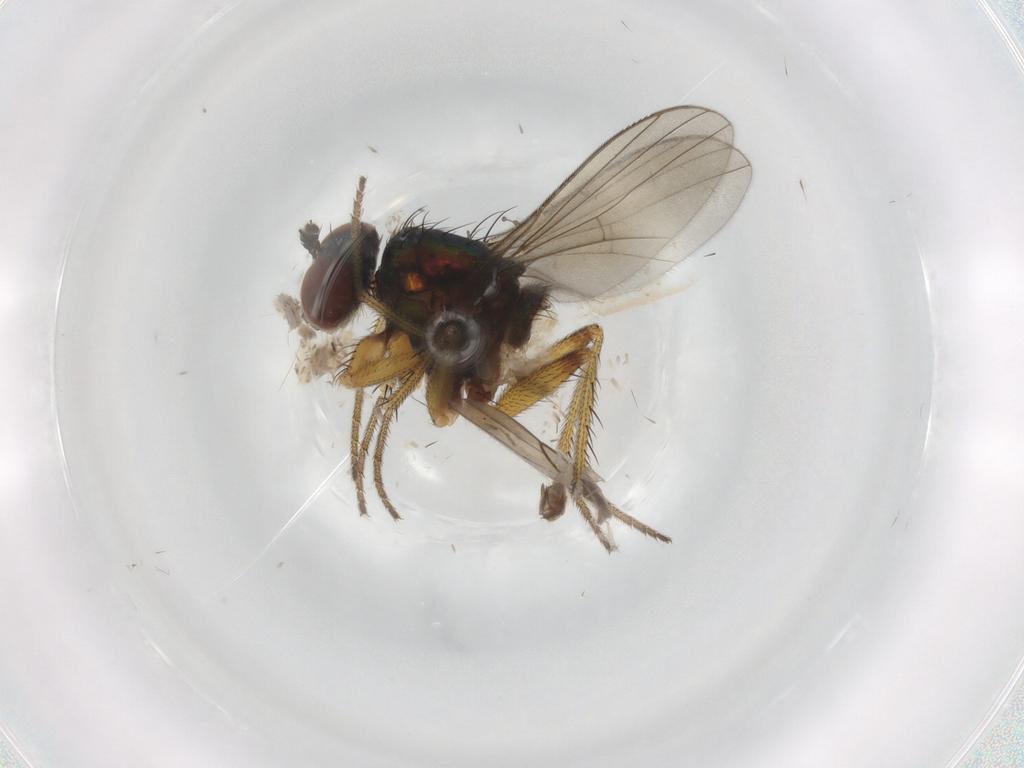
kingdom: Animalia
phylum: Arthropoda
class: Insecta
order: Diptera
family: Dolichopodidae
